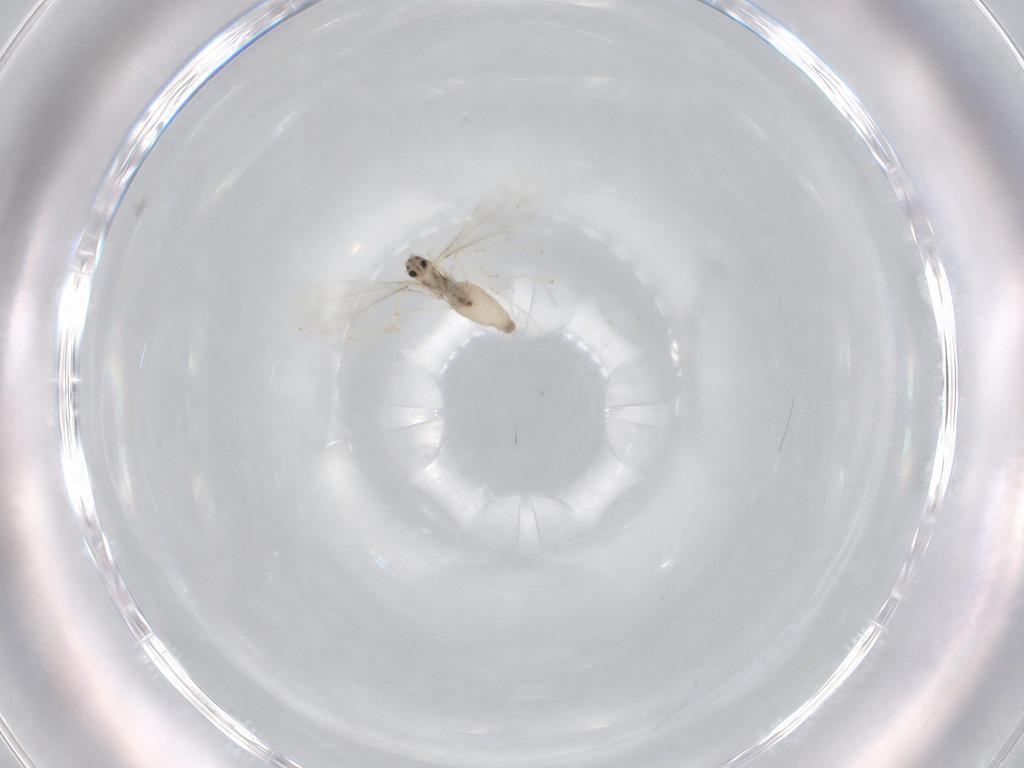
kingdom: Animalia
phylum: Arthropoda
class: Insecta
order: Diptera
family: Cecidomyiidae
